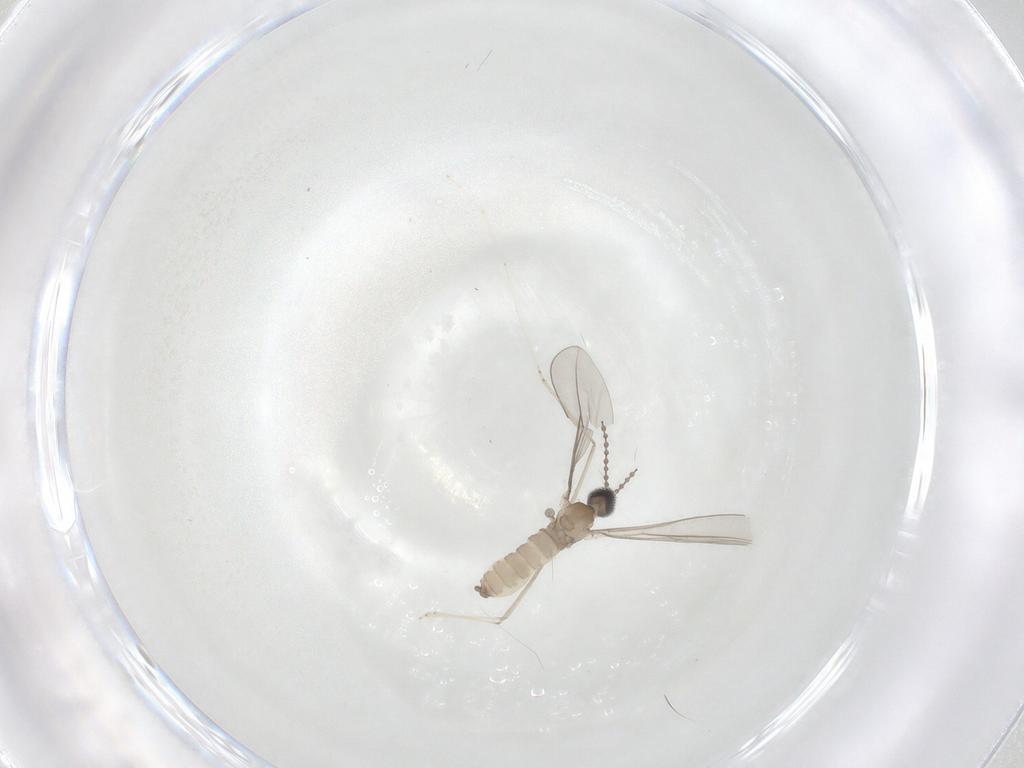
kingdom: Animalia
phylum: Arthropoda
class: Insecta
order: Diptera
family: Cecidomyiidae
